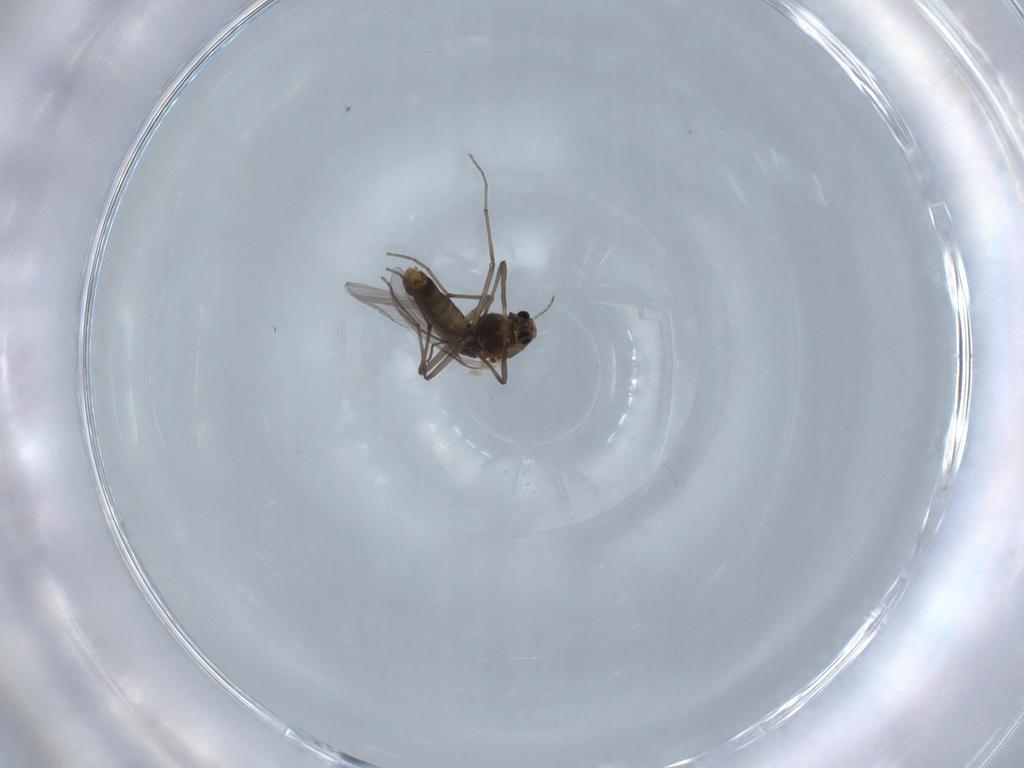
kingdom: Animalia
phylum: Arthropoda
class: Insecta
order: Diptera
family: Chironomidae
